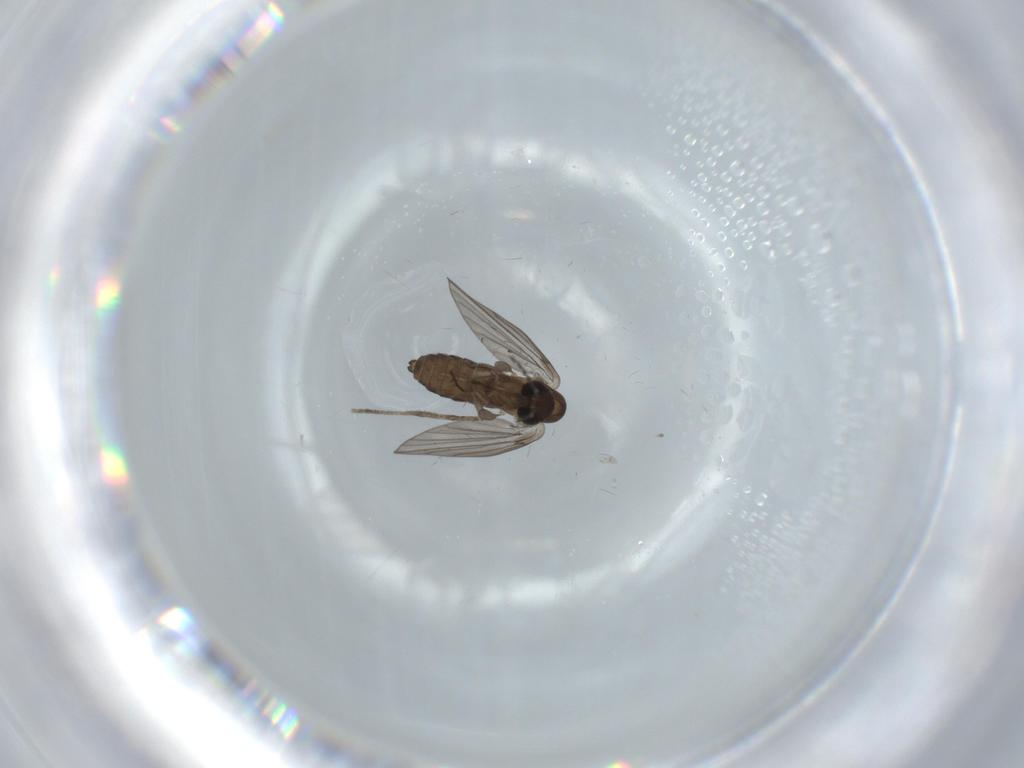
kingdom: Animalia
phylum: Arthropoda
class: Insecta
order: Diptera
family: Psychodidae
